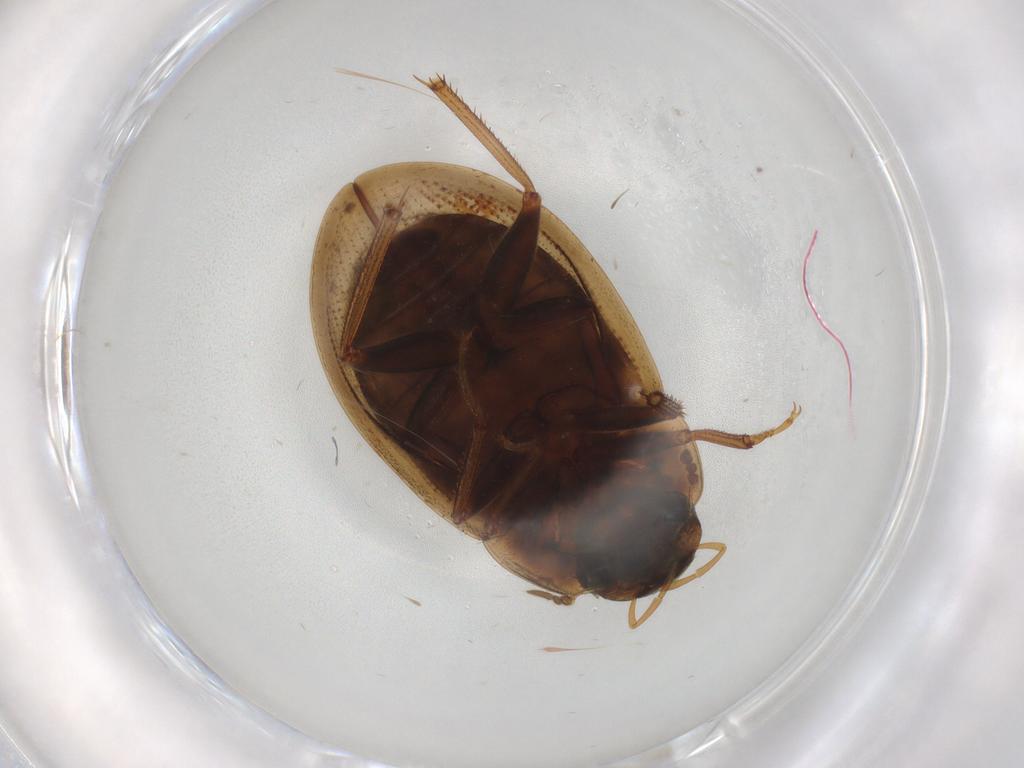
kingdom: Animalia
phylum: Arthropoda
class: Insecta
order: Coleoptera
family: Hydrophilidae
